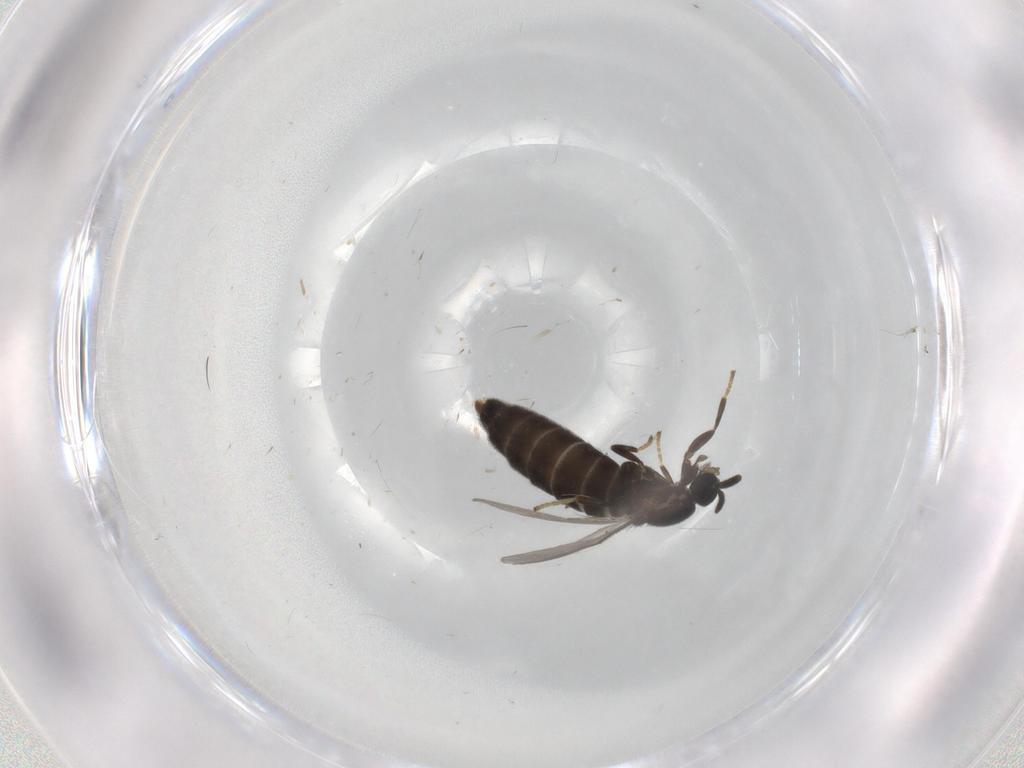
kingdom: Animalia
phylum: Arthropoda
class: Insecta
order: Diptera
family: Scatopsidae
